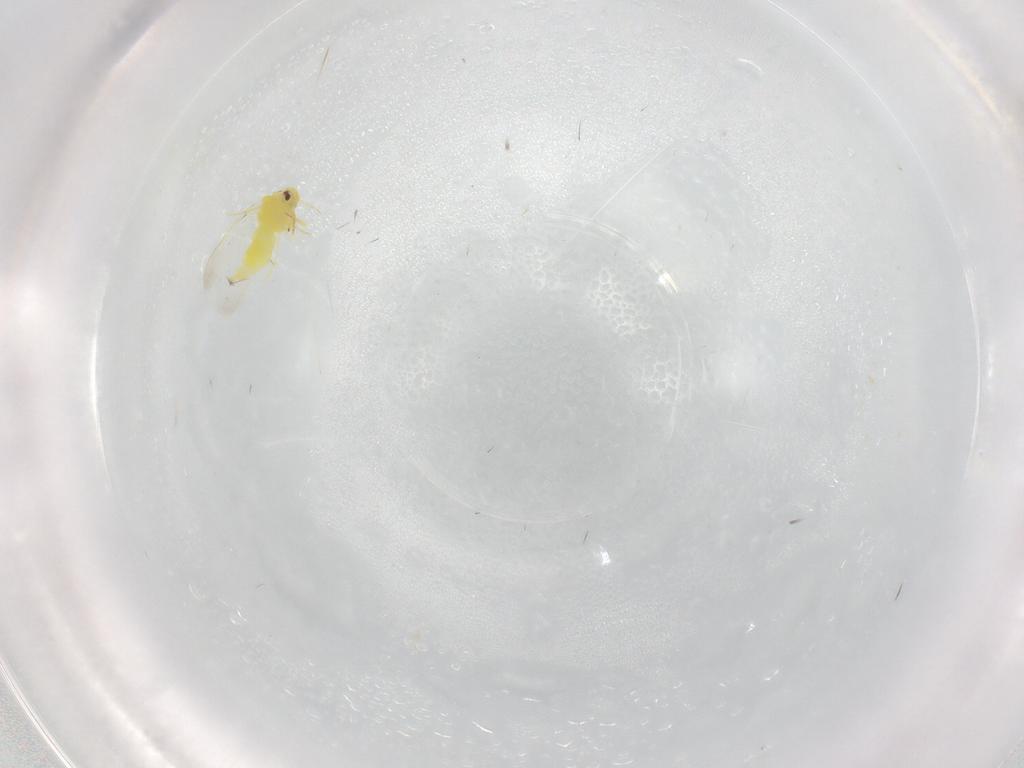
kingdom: Animalia
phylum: Arthropoda
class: Insecta
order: Hemiptera
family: Aleyrodidae
